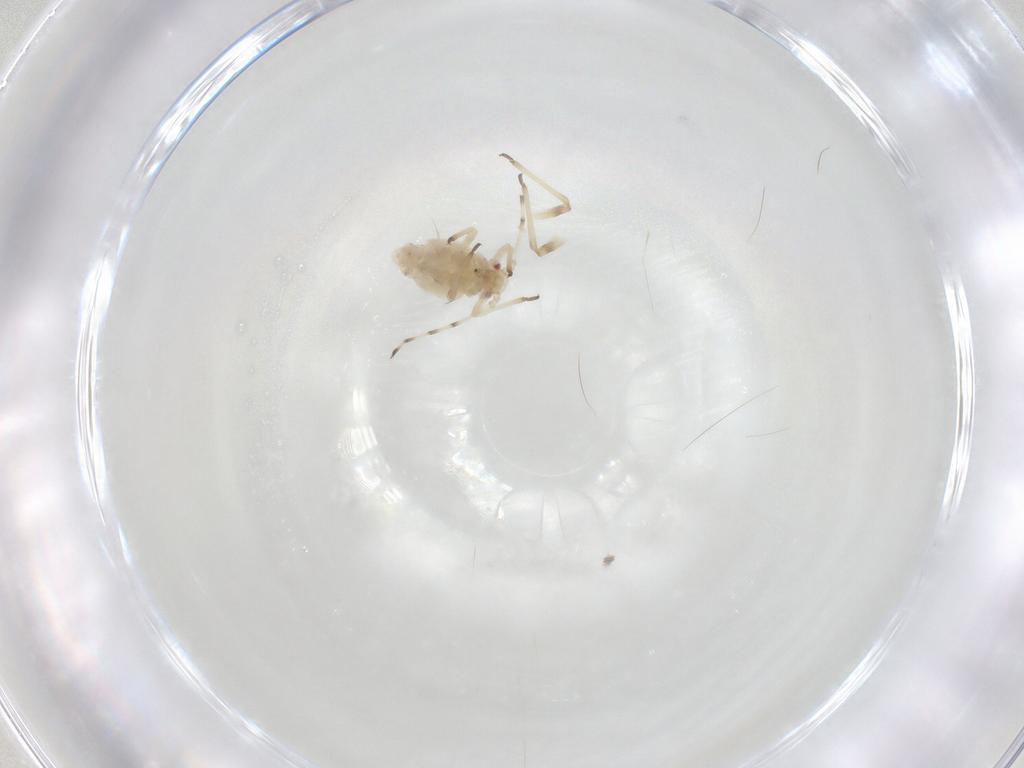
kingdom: Animalia
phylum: Arthropoda
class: Insecta
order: Hemiptera
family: Aphididae
